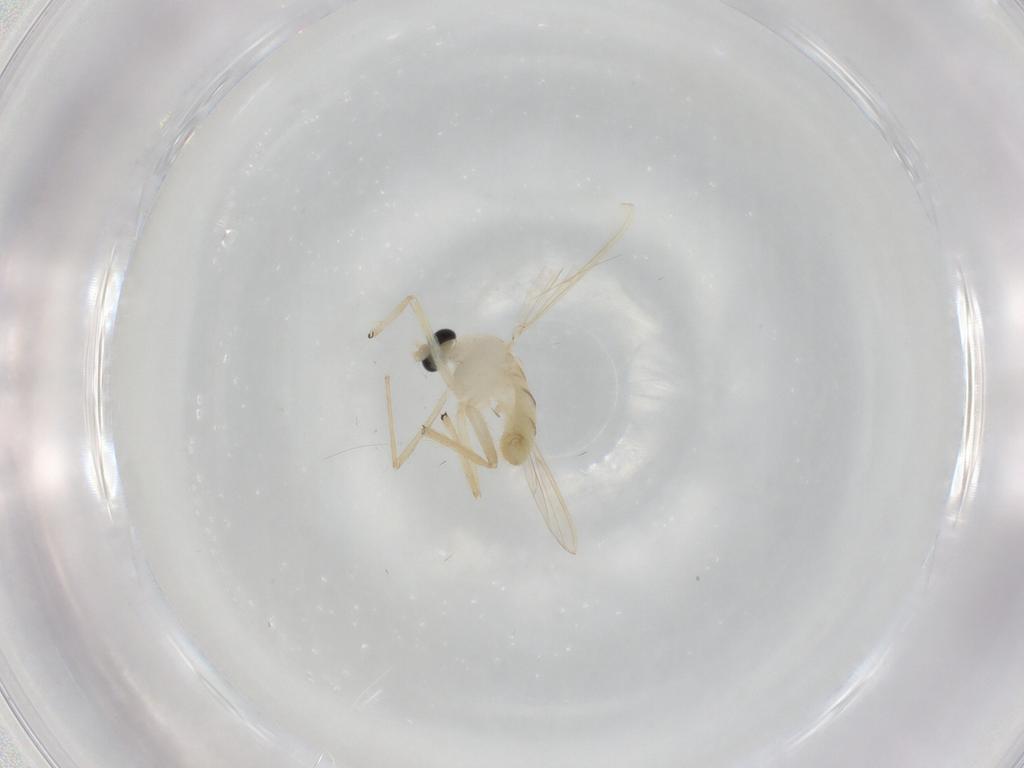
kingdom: Animalia
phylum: Arthropoda
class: Insecta
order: Diptera
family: Chironomidae
